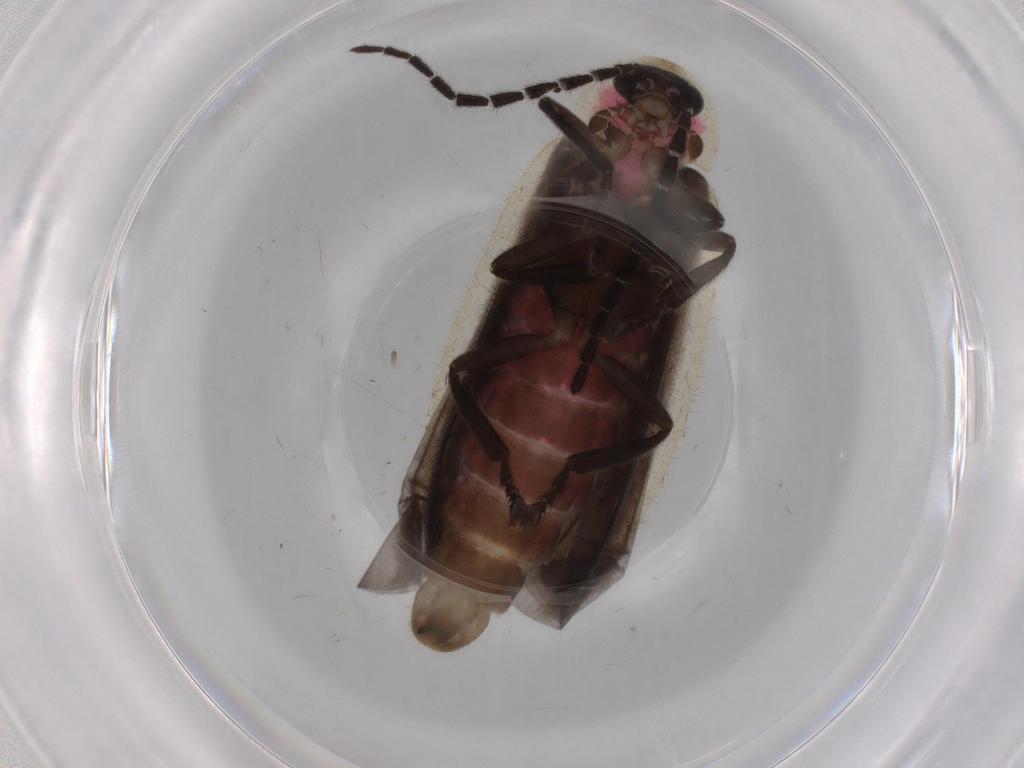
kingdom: Animalia
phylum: Arthropoda
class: Insecta
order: Coleoptera
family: Lampyridae
